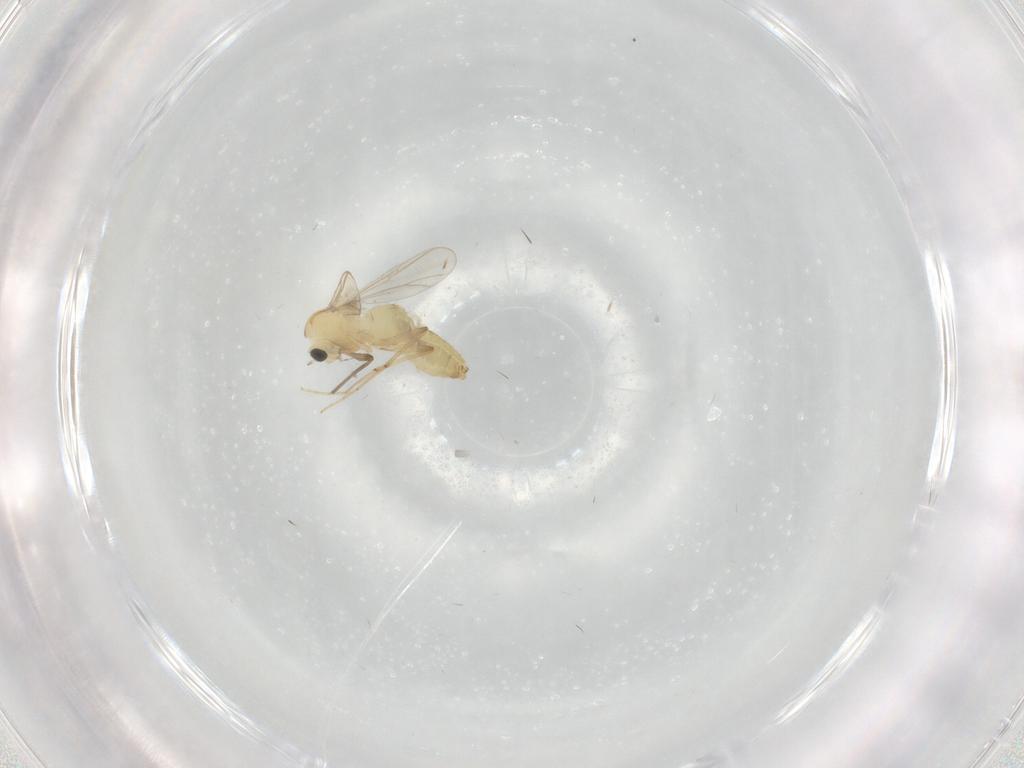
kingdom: Animalia
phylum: Arthropoda
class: Insecta
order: Diptera
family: Chironomidae
